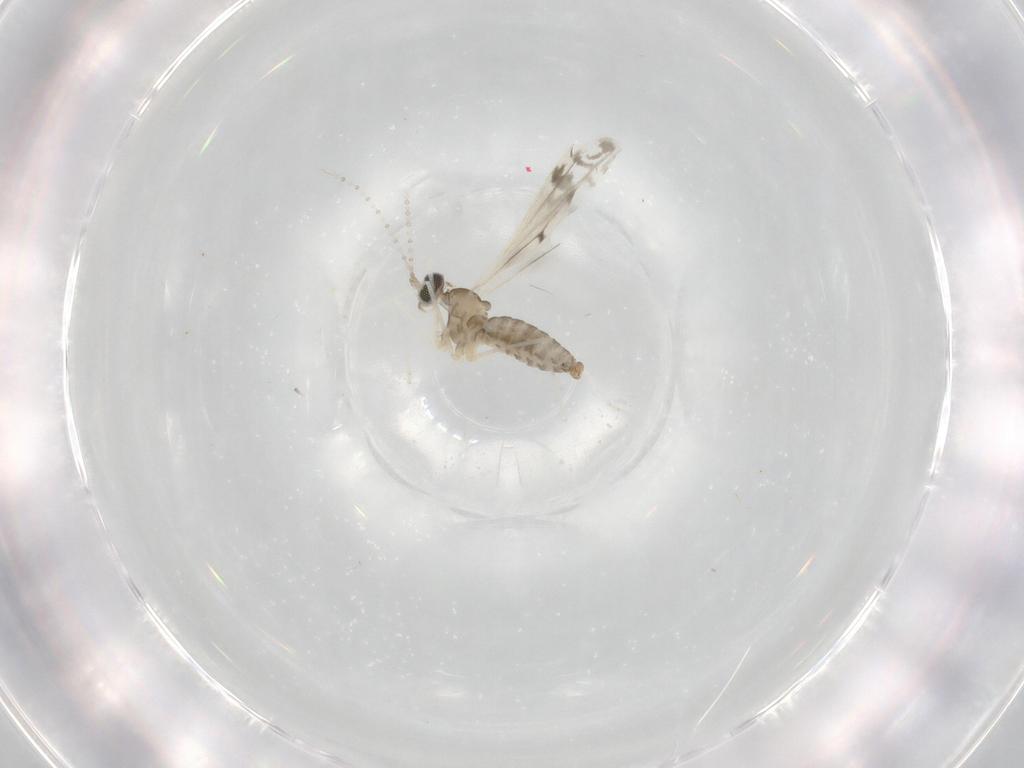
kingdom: Animalia
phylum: Arthropoda
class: Insecta
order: Diptera
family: Cecidomyiidae
